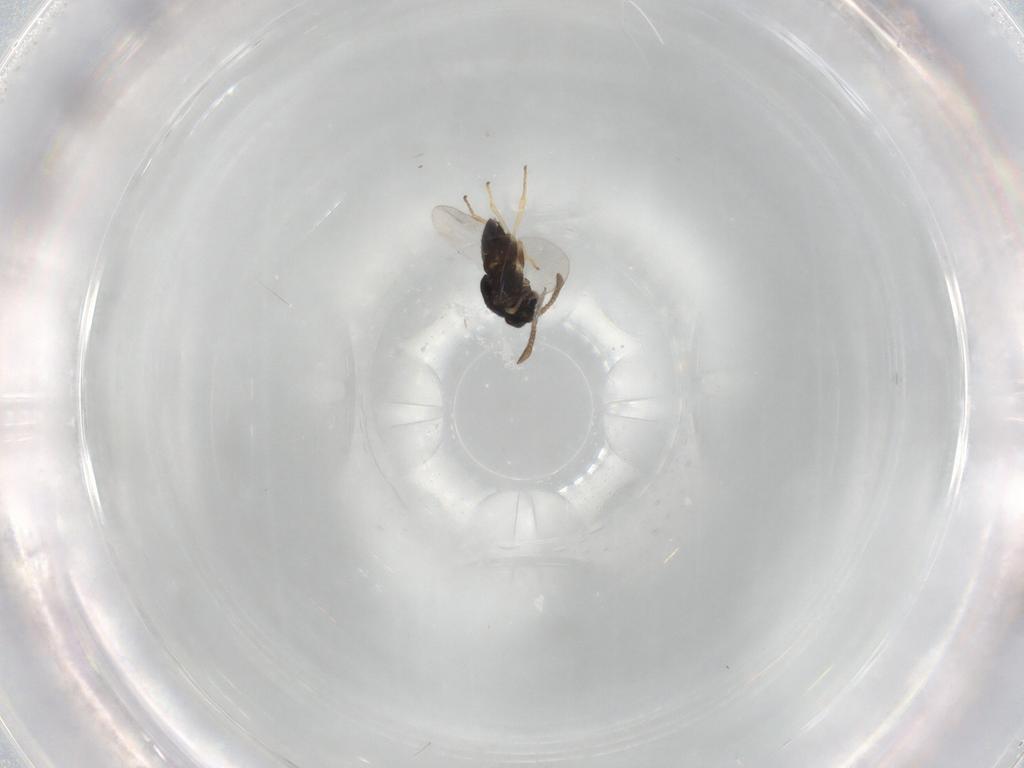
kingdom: Animalia
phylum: Arthropoda
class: Insecta
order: Hymenoptera
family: Encyrtidae
